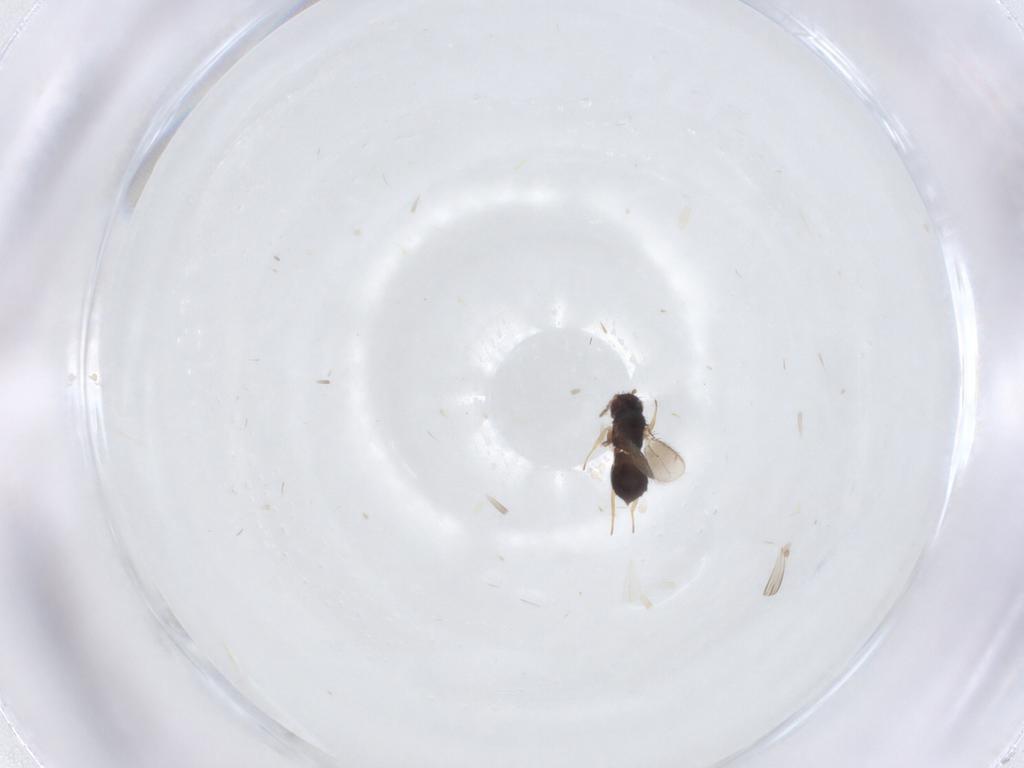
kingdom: Animalia
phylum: Arthropoda
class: Insecta
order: Hymenoptera
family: Eulophidae
